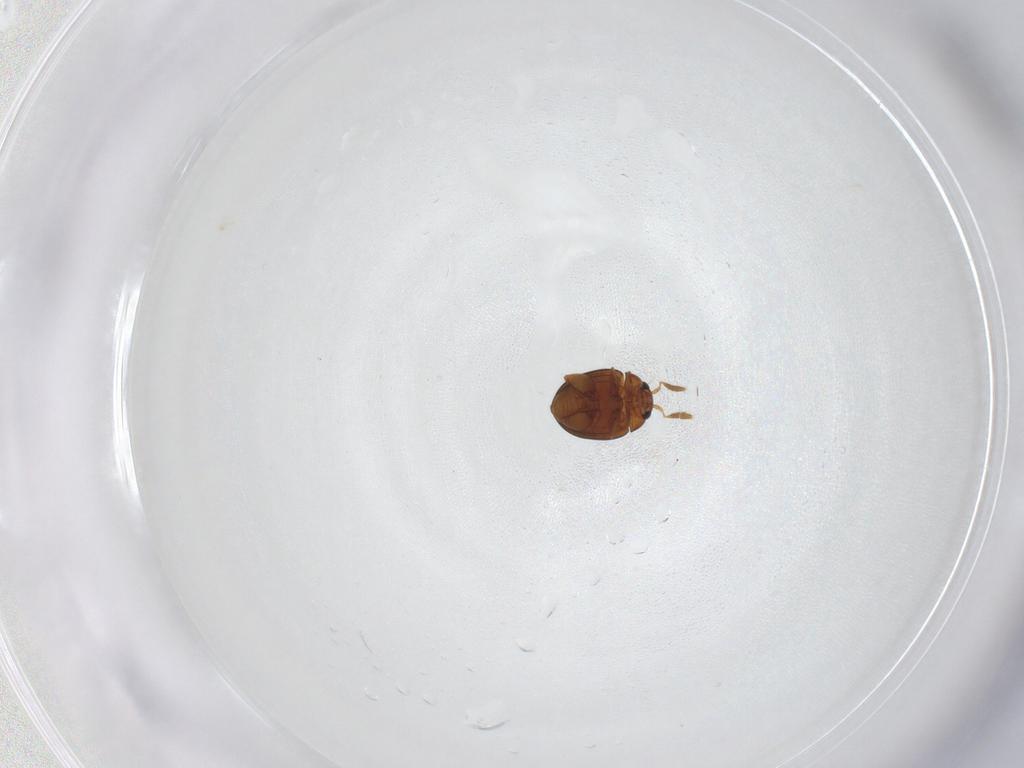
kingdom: Animalia
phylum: Arthropoda
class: Insecta
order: Coleoptera
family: Chrysomelidae
